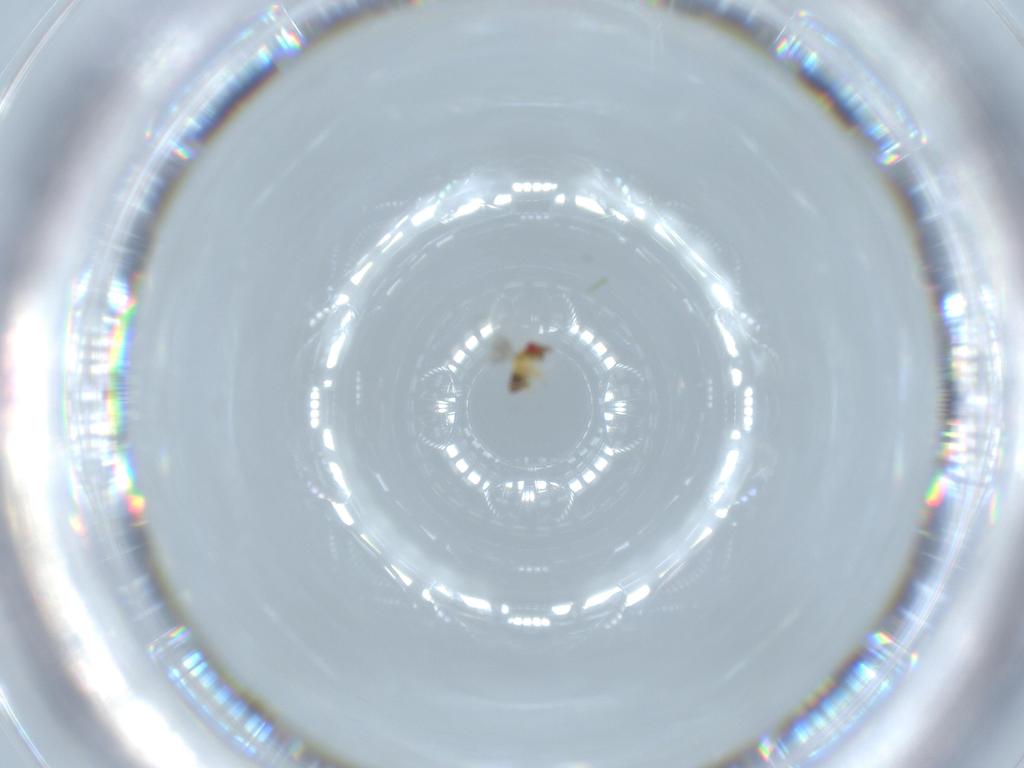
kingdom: Animalia
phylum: Arthropoda
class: Insecta
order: Hymenoptera
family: Trichogrammatidae
